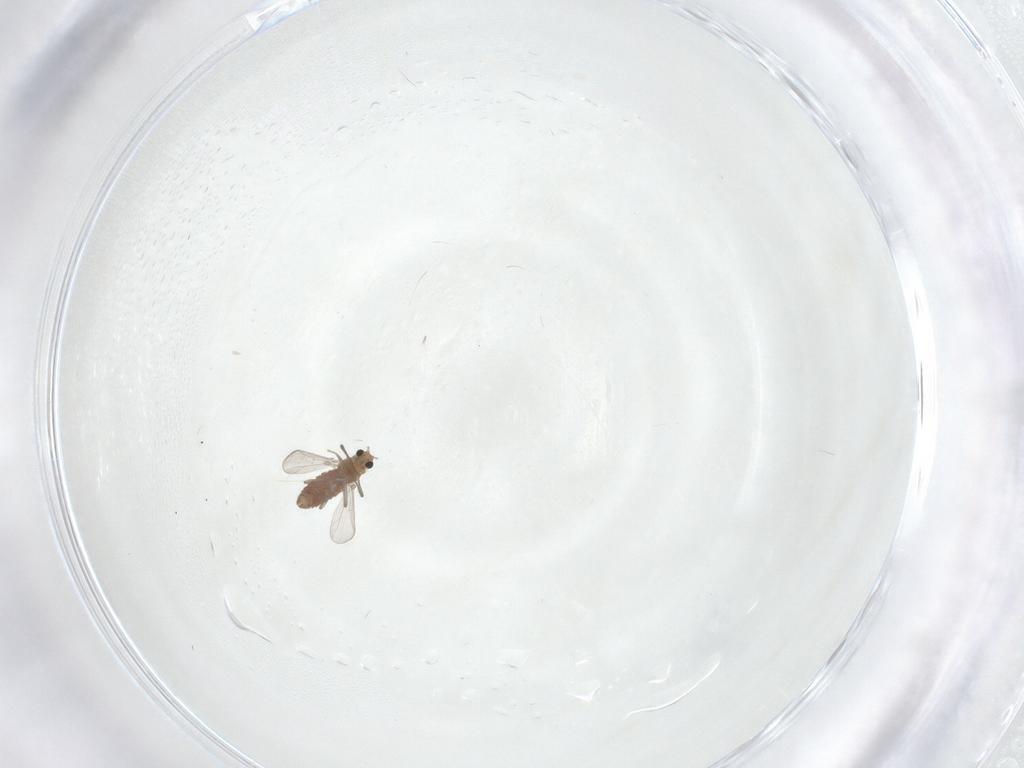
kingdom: Animalia
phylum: Arthropoda
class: Insecta
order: Diptera
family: Chironomidae
